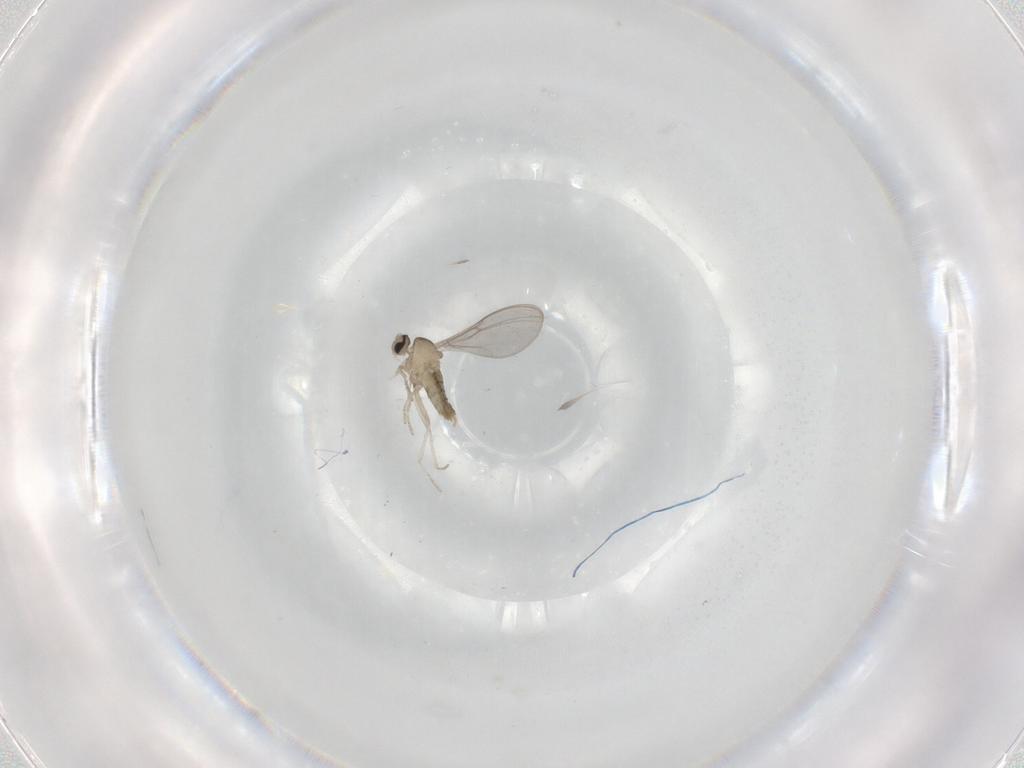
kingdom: Animalia
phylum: Arthropoda
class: Insecta
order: Diptera
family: Cecidomyiidae
